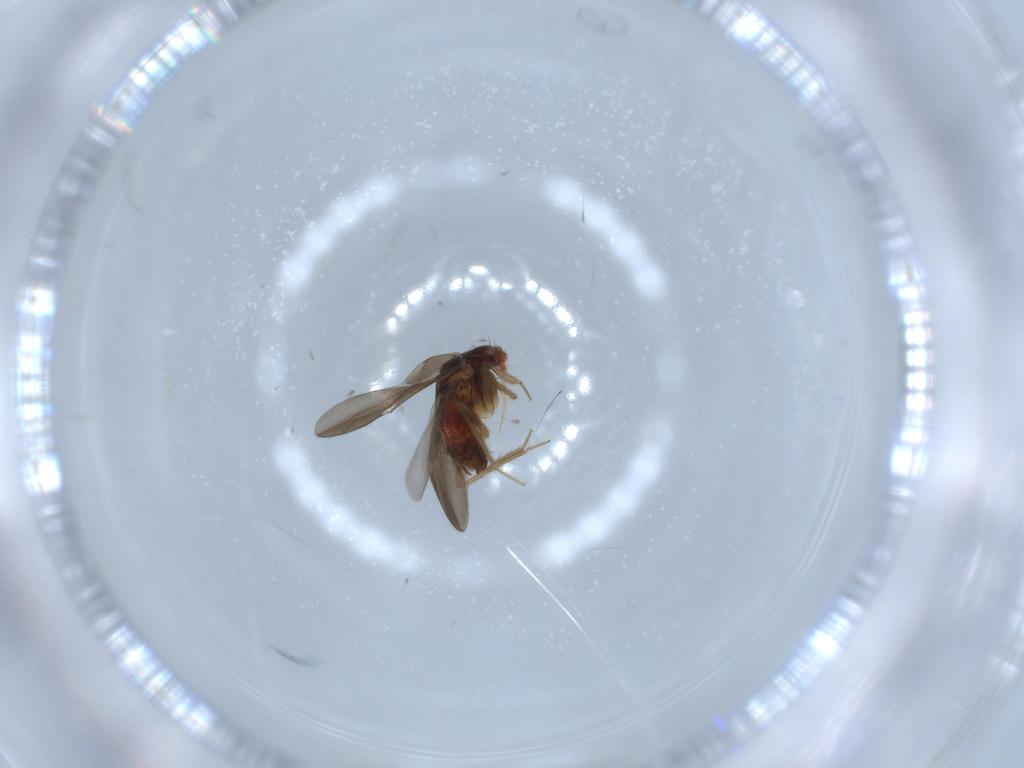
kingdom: Animalia
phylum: Arthropoda
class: Insecta
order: Hemiptera
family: Ceratocombidae
